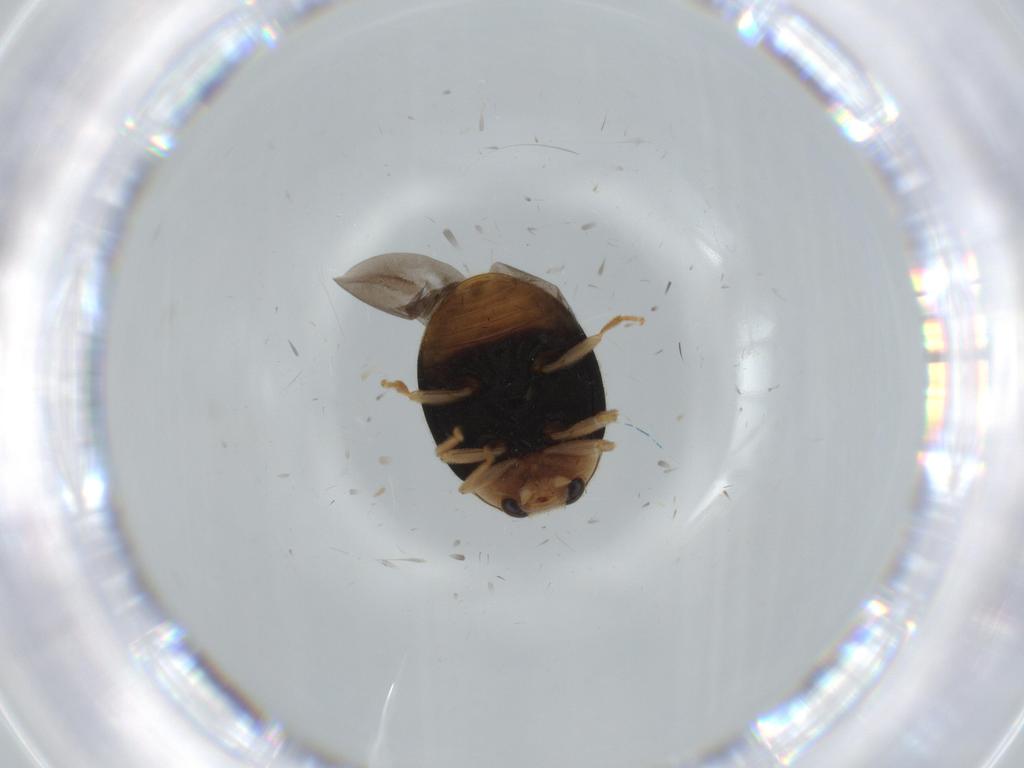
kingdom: Animalia
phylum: Arthropoda
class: Insecta
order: Coleoptera
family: Coccinellidae
